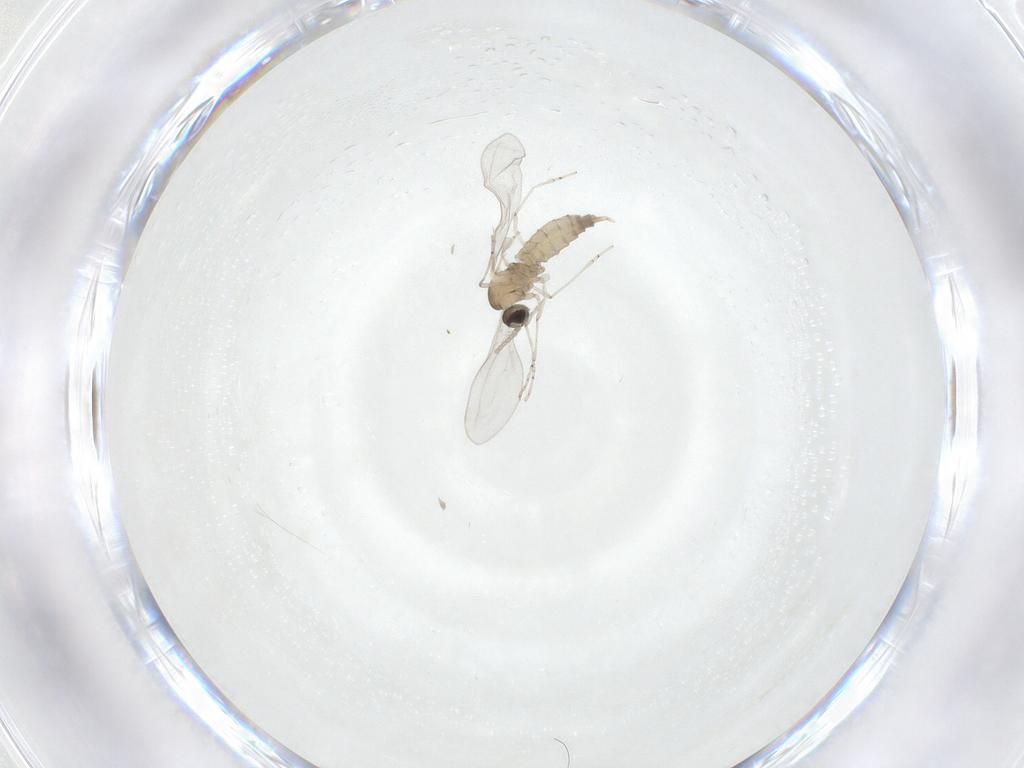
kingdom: Animalia
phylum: Arthropoda
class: Insecta
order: Diptera
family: Cecidomyiidae
